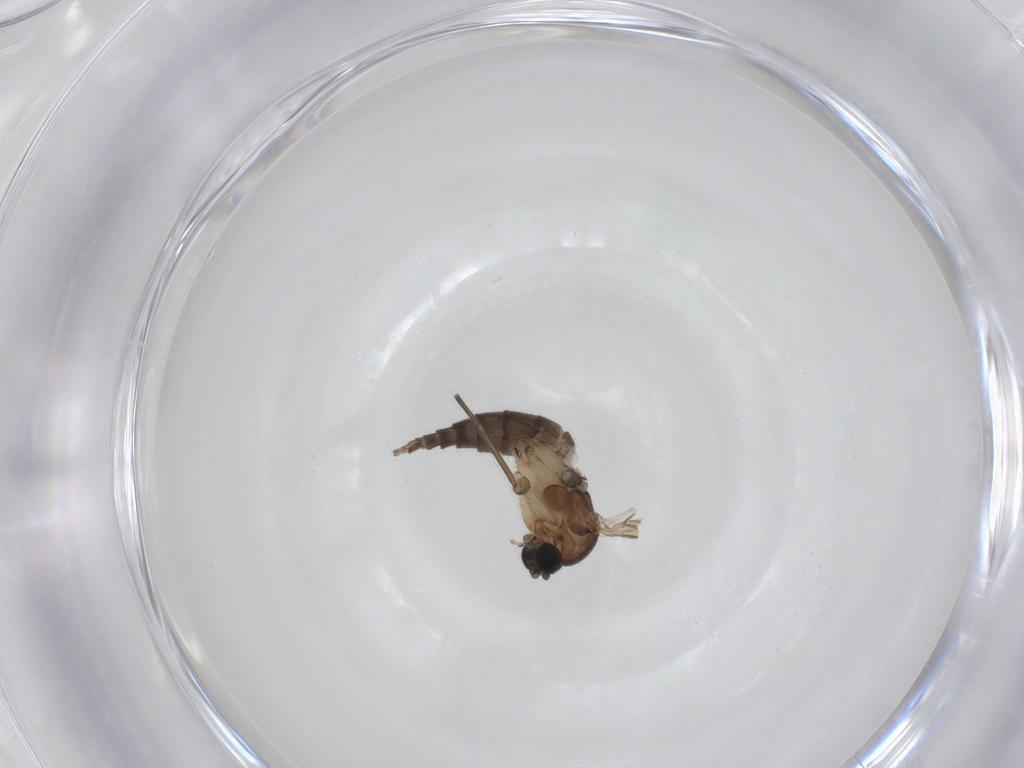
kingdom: Animalia
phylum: Arthropoda
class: Insecta
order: Diptera
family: Sciaridae
